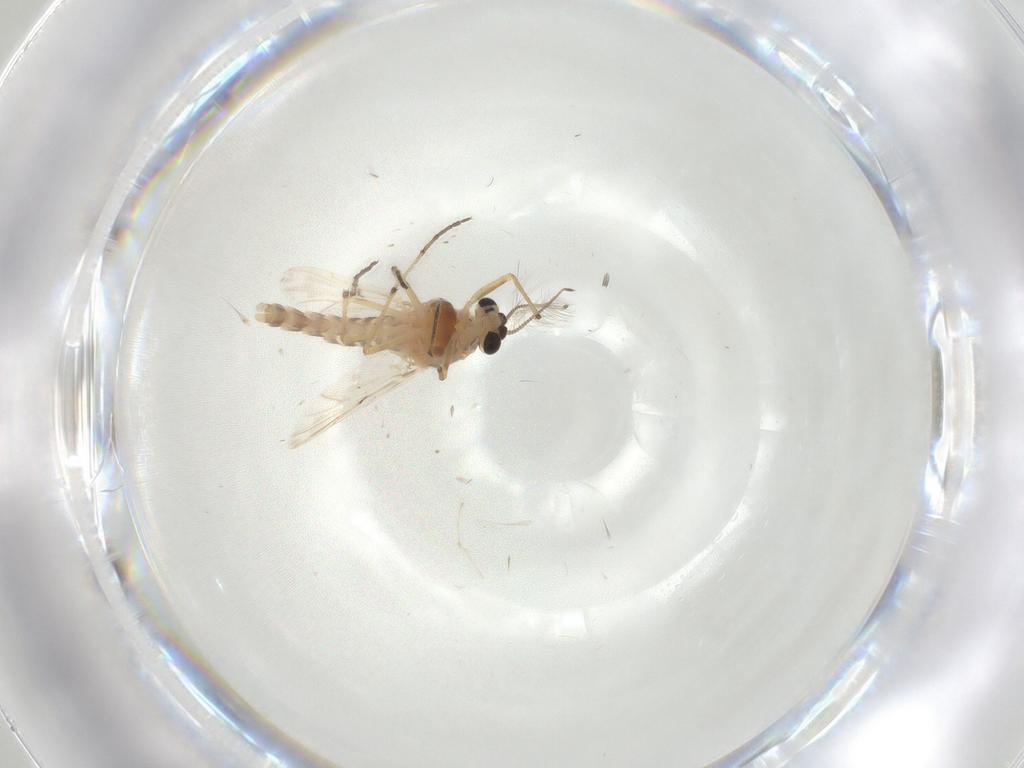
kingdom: Animalia
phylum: Arthropoda
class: Insecta
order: Diptera
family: Chironomidae
